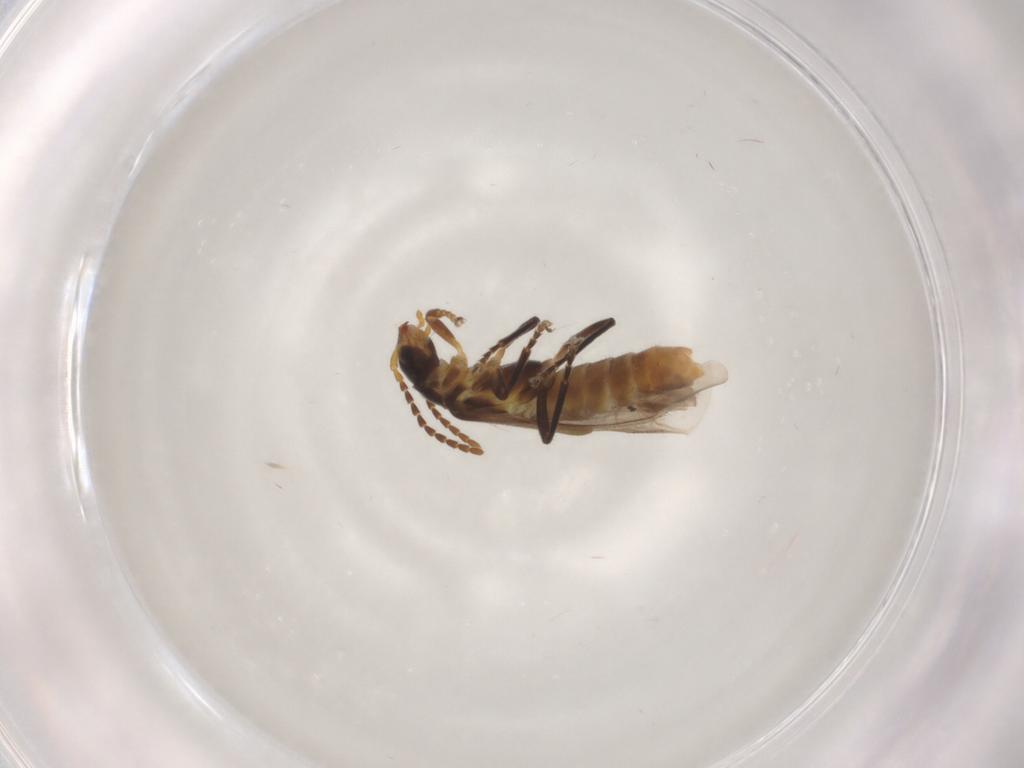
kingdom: Animalia
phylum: Arthropoda
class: Insecta
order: Coleoptera
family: Cantharidae
